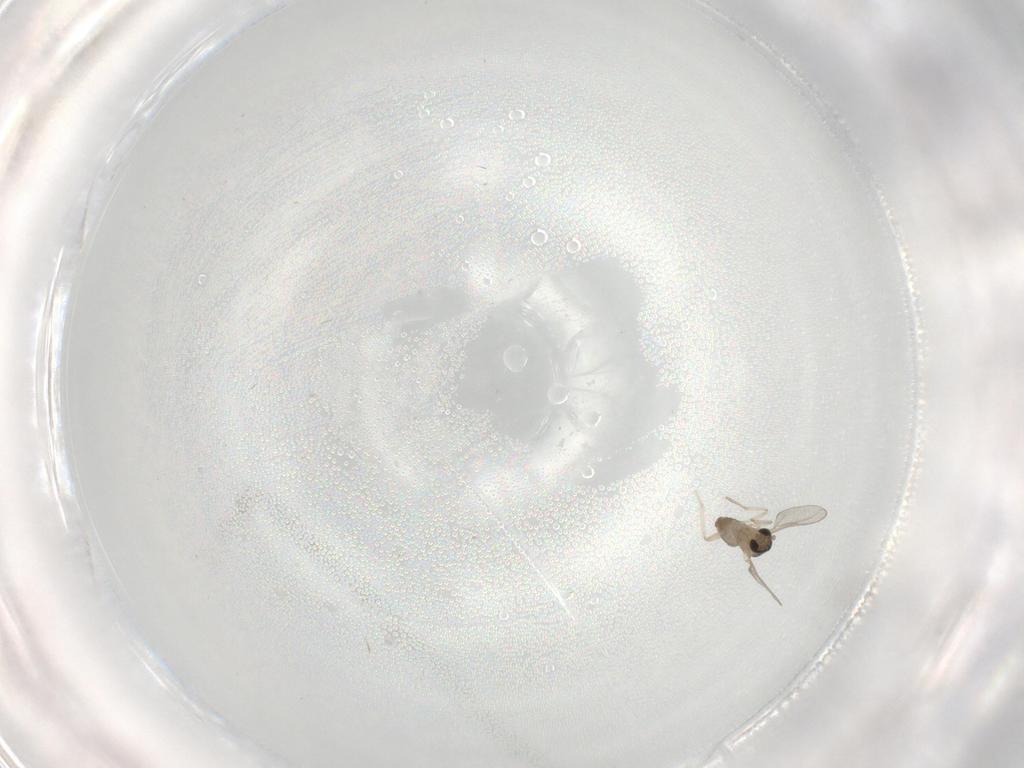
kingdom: Animalia
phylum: Arthropoda
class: Insecta
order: Diptera
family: Cecidomyiidae
